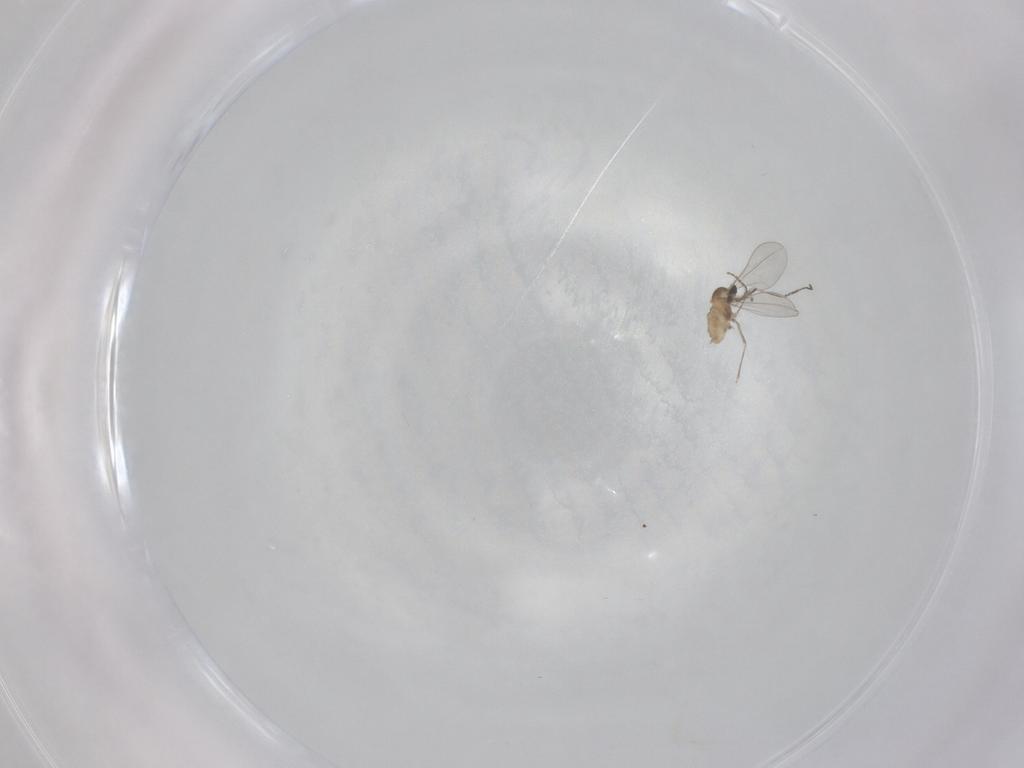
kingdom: Animalia
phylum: Arthropoda
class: Insecta
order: Diptera
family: Cecidomyiidae
